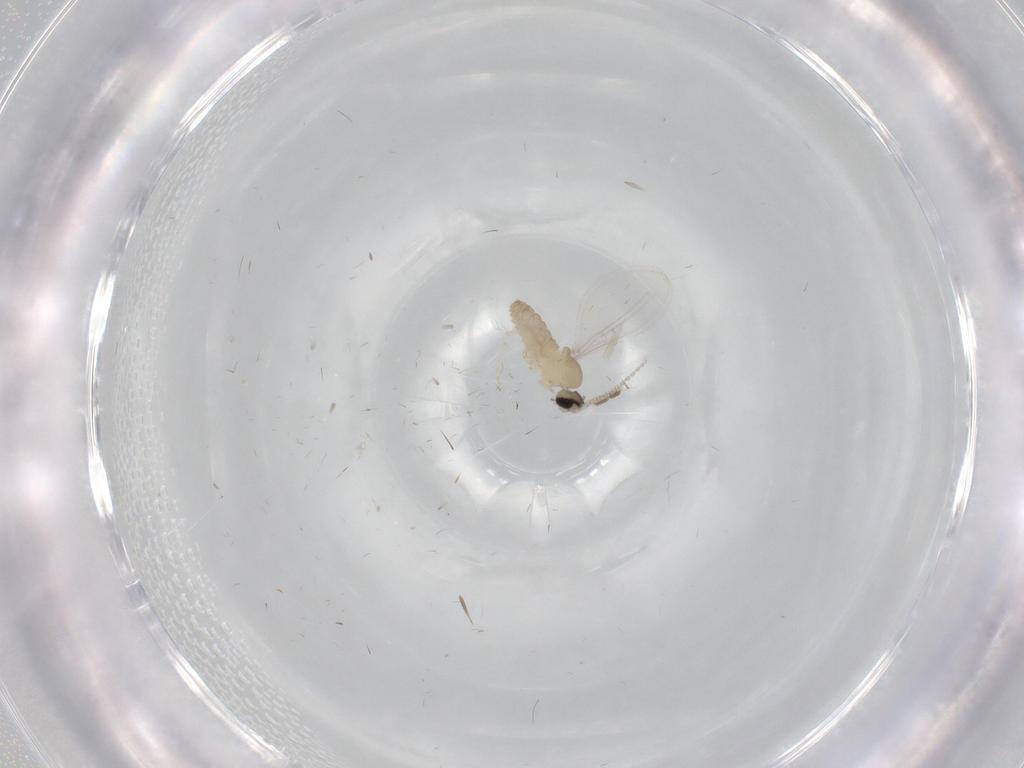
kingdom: Animalia
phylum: Arthropoda
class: Insecta
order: Diptera
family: Cecidomyiidae
